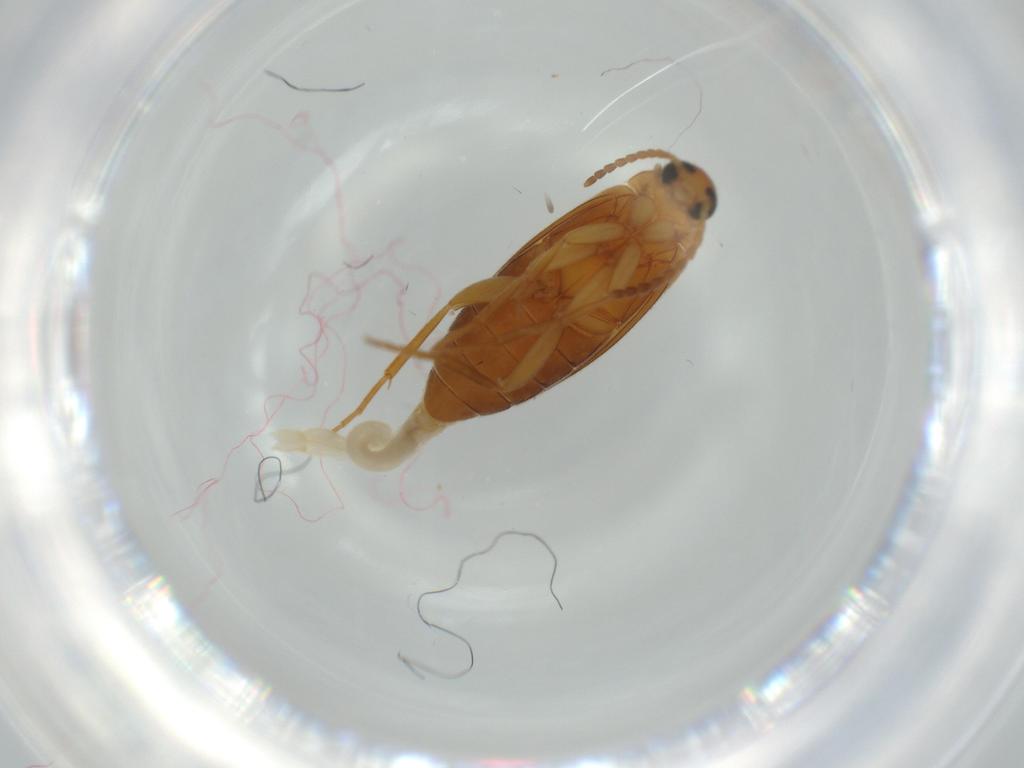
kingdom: Animalia
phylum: Arthropoda
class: Insecta
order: Coleoptera
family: Scraptiidae
